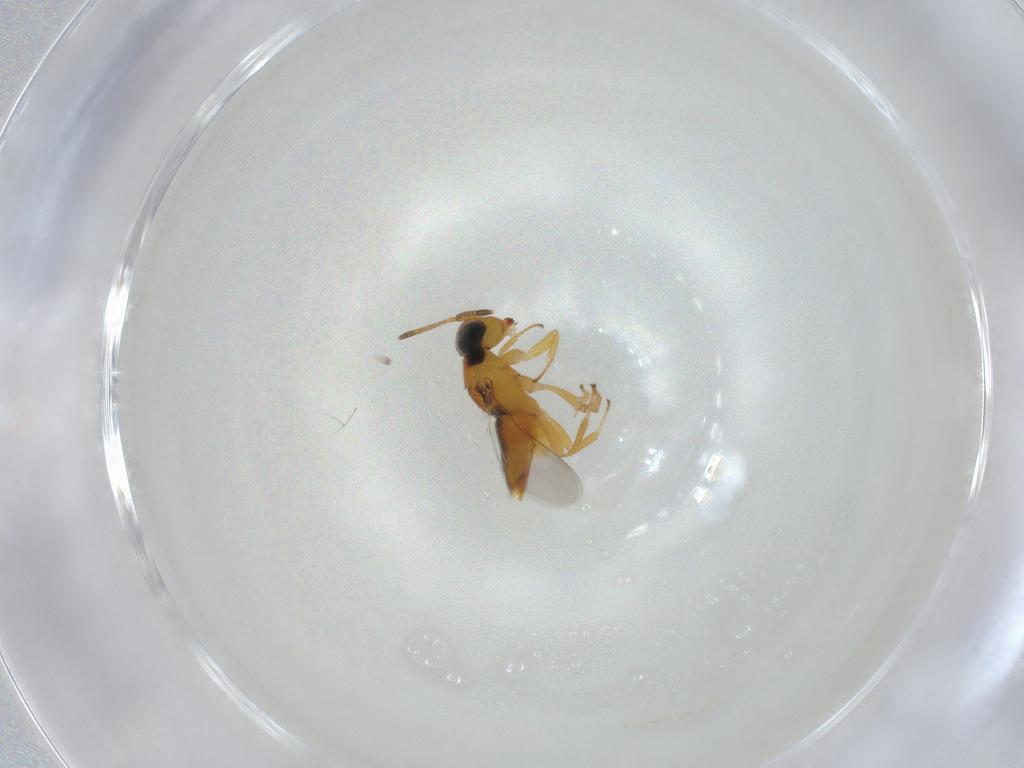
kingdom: Animalia
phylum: Arthropoda
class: Insecta
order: Hymenoptera
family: Encyrtidae
